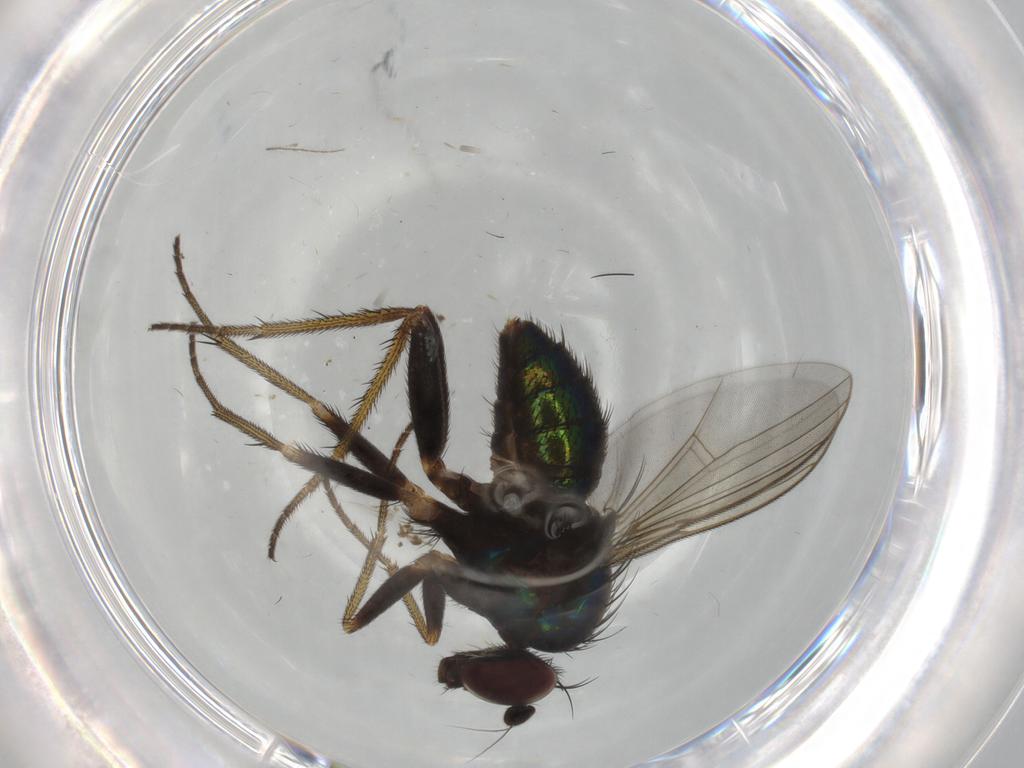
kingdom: Animalia
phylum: Arthropoda
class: Insecta
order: Diptera
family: Dolichopodidae
